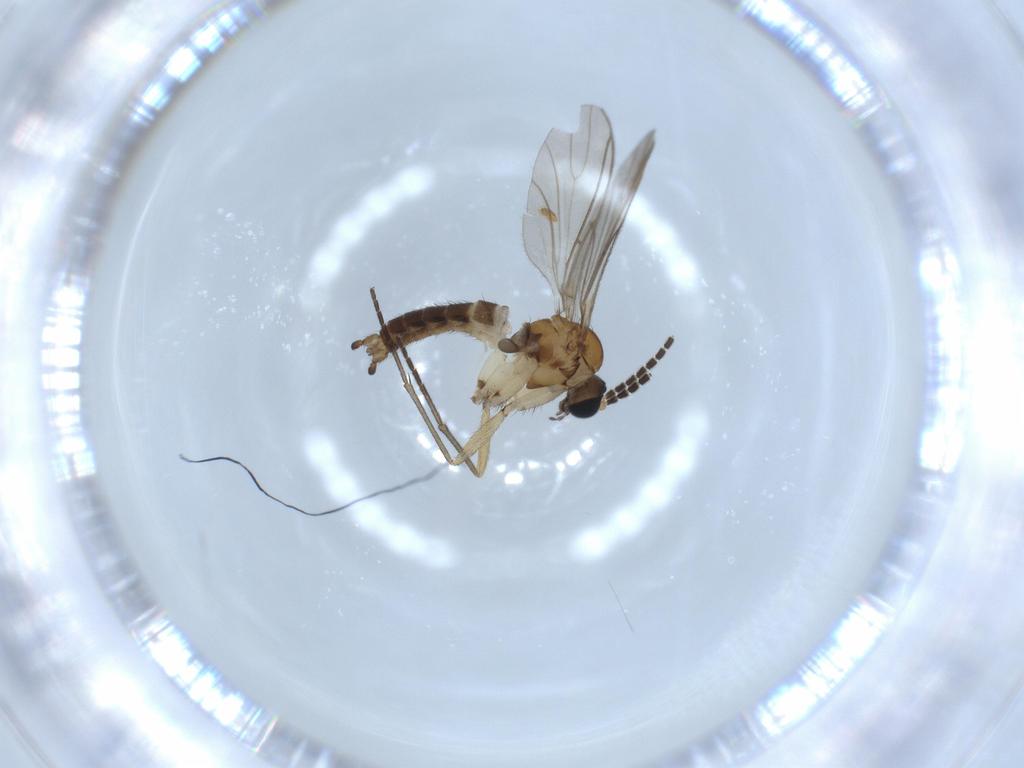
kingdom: Animalia
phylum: Arthropoda
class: Insecta
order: Diptera
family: Sciaridae
